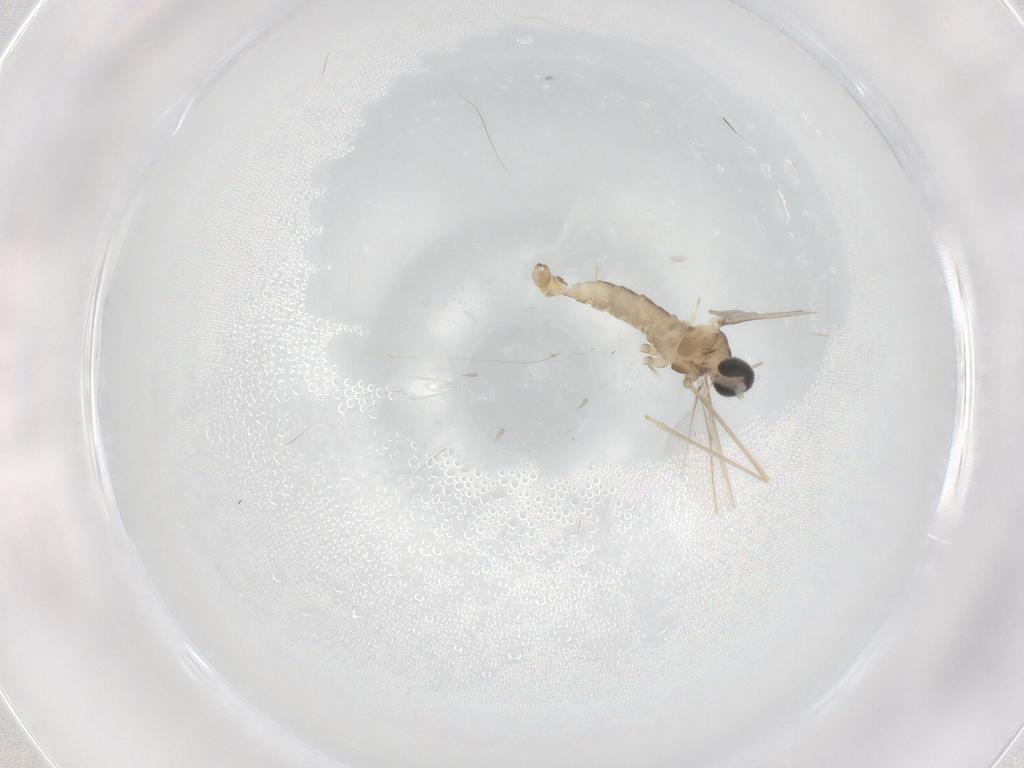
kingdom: Animalia
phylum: Arthropoda
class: Insecta
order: Diptera
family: Cecidomyiidae
